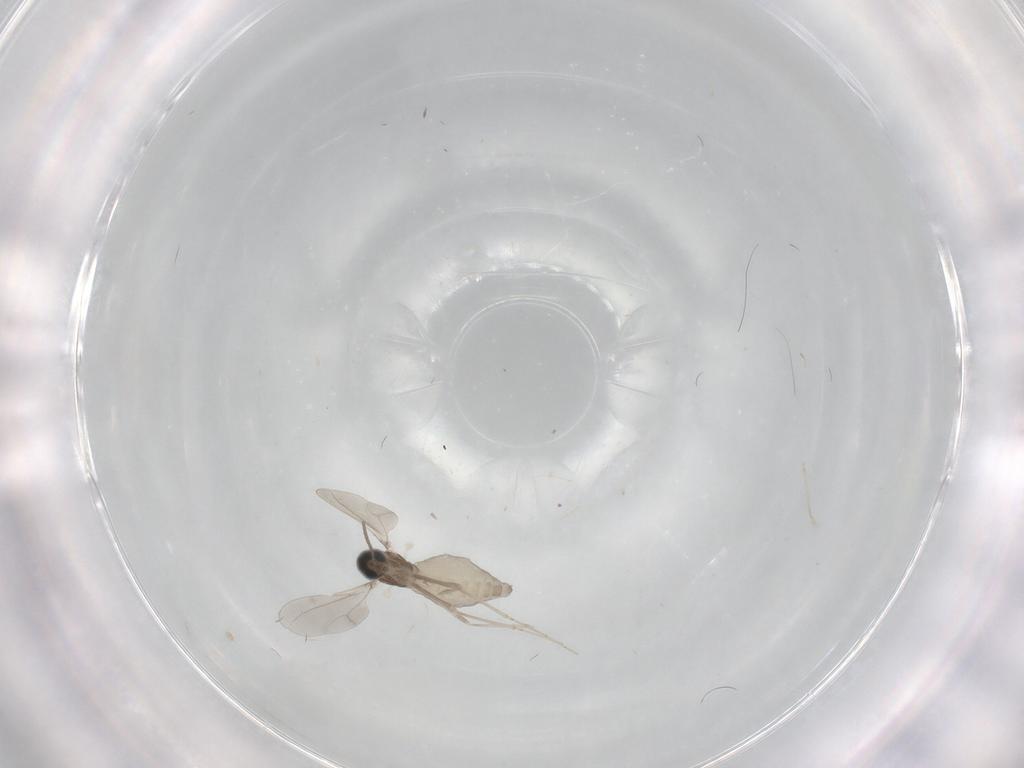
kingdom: Animalia
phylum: Arthropoda
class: Insecta
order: Diptera
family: Cecidomyiidae
